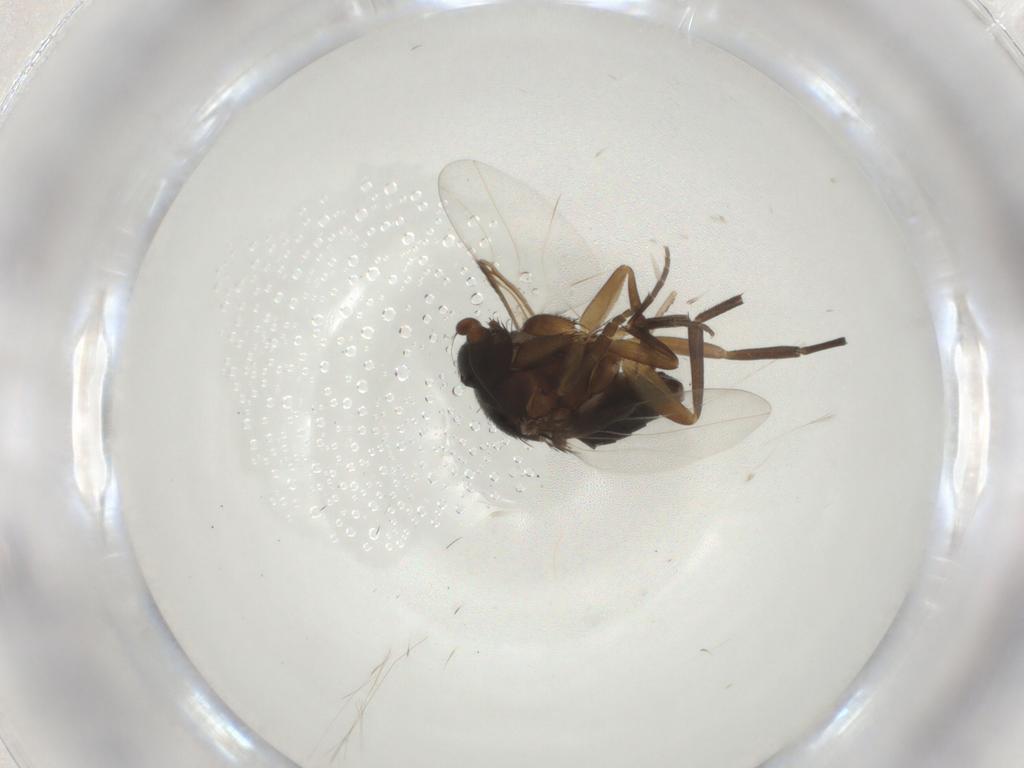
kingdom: Animalia
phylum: Arthropoda
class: Insecta
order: Diptera
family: Phoridae
